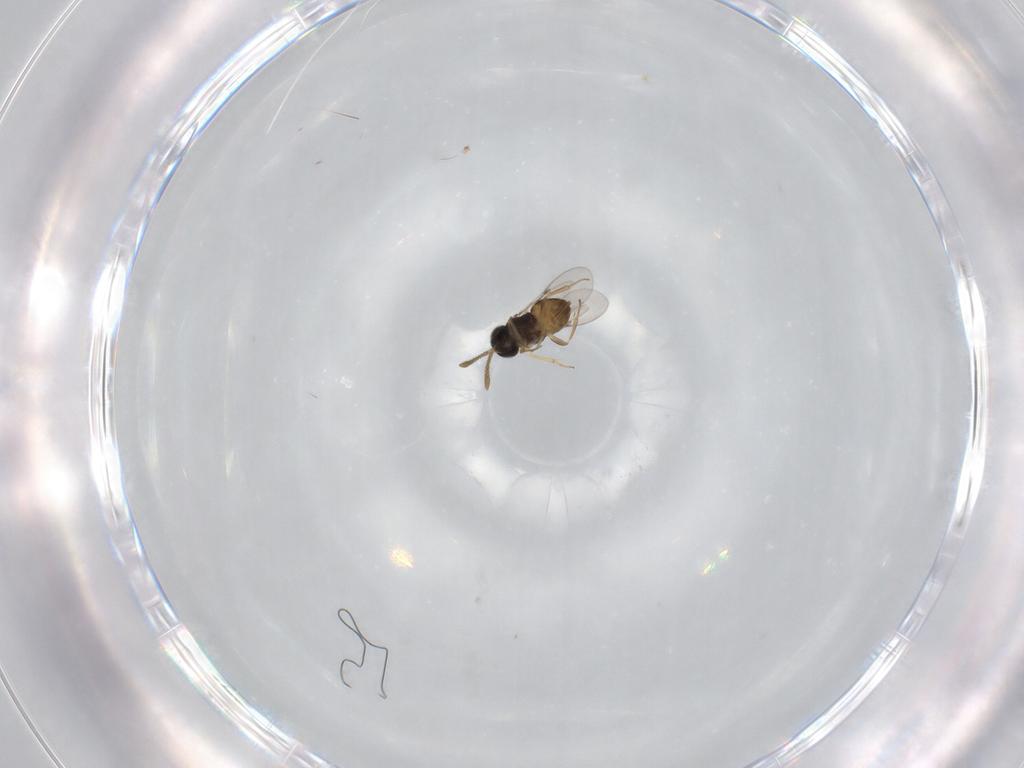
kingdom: Animalia
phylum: Arthropoda
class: Insecta
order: Hymenoptera
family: Encyrtidae
